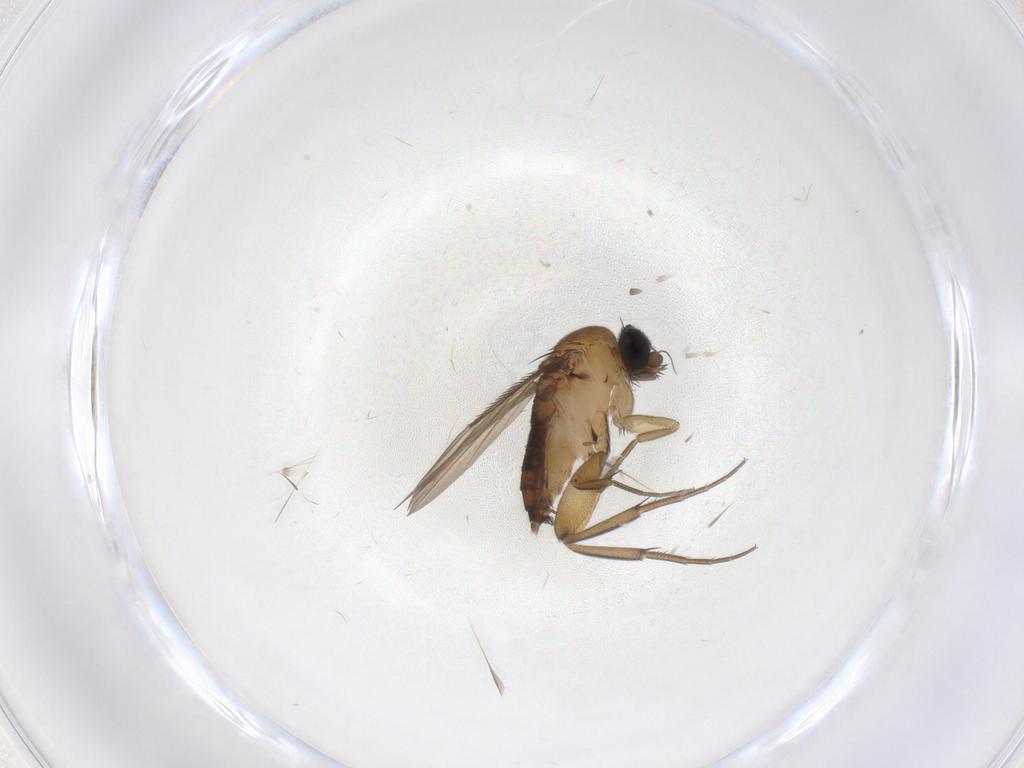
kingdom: Animalia
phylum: Arthropoda
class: Insecta
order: Diptera
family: Phoridae
